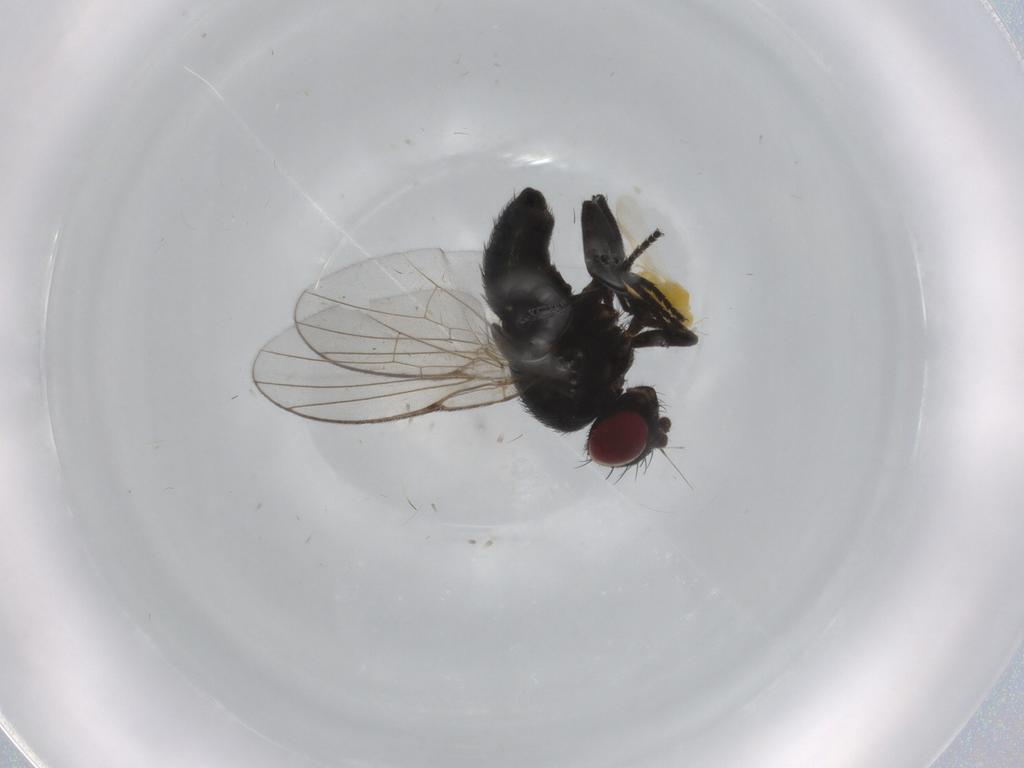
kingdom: Animalia
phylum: Arthropoda
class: Insecta
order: Diptera
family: Agromyzidae
